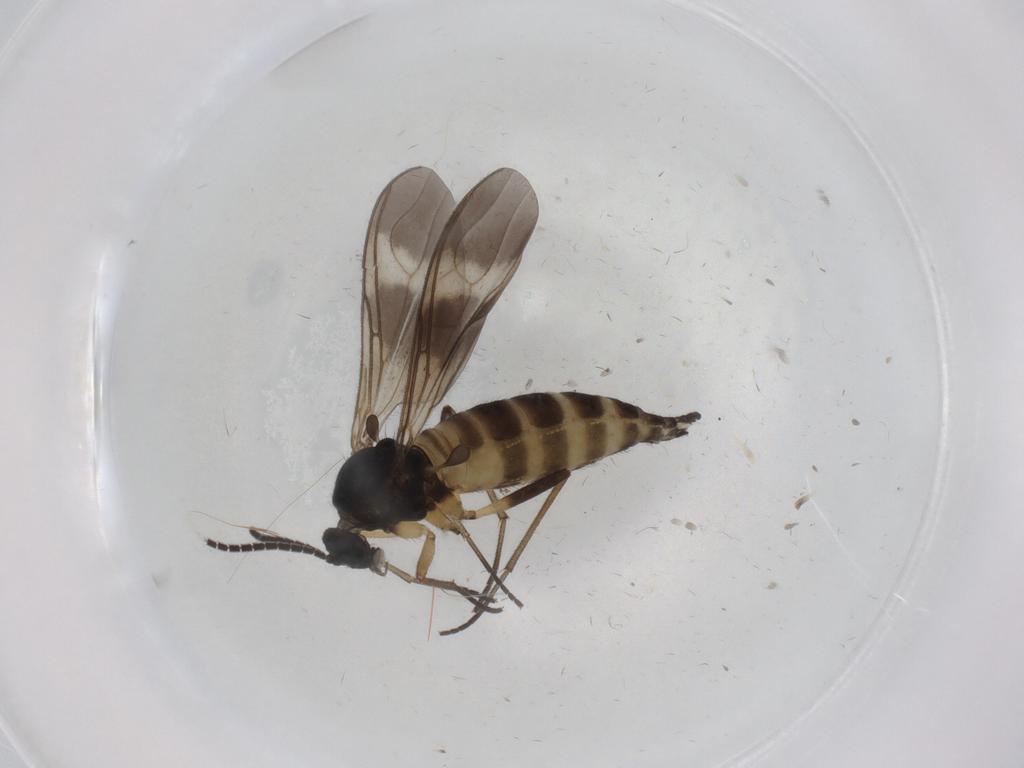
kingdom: Animalia
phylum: Arthropoda
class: Insecta
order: Diptera
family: Sciaridae
